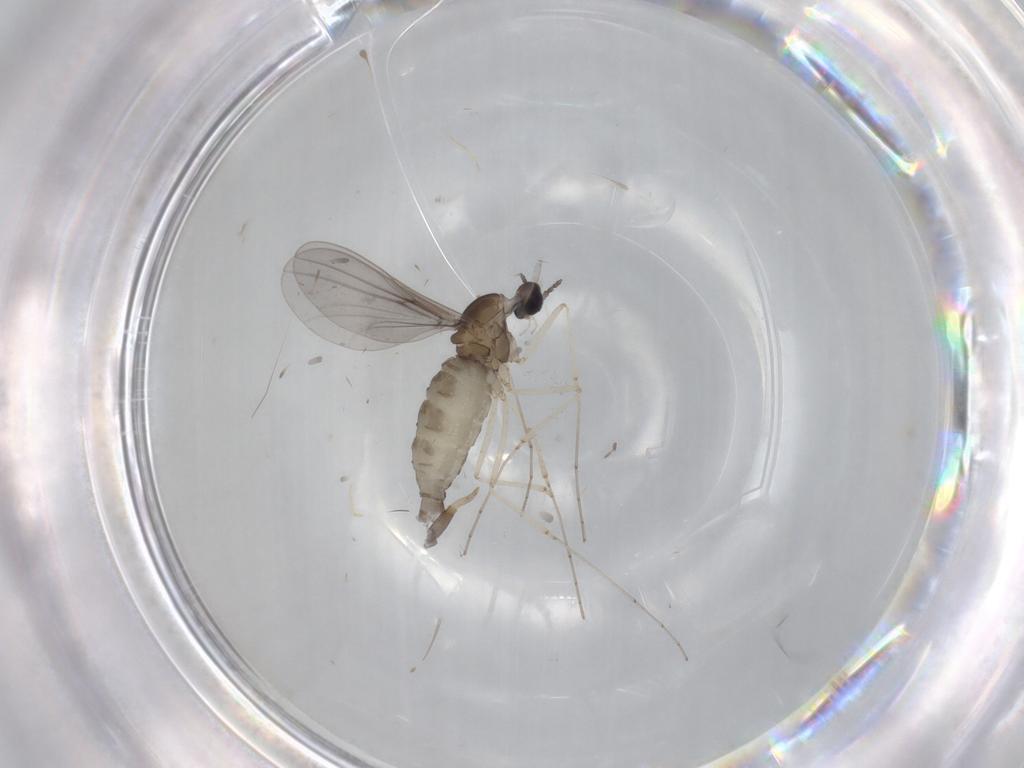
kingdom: Animalia
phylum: Arthropoda
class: Insecta
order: Diptera
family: Cecidomyiidae
